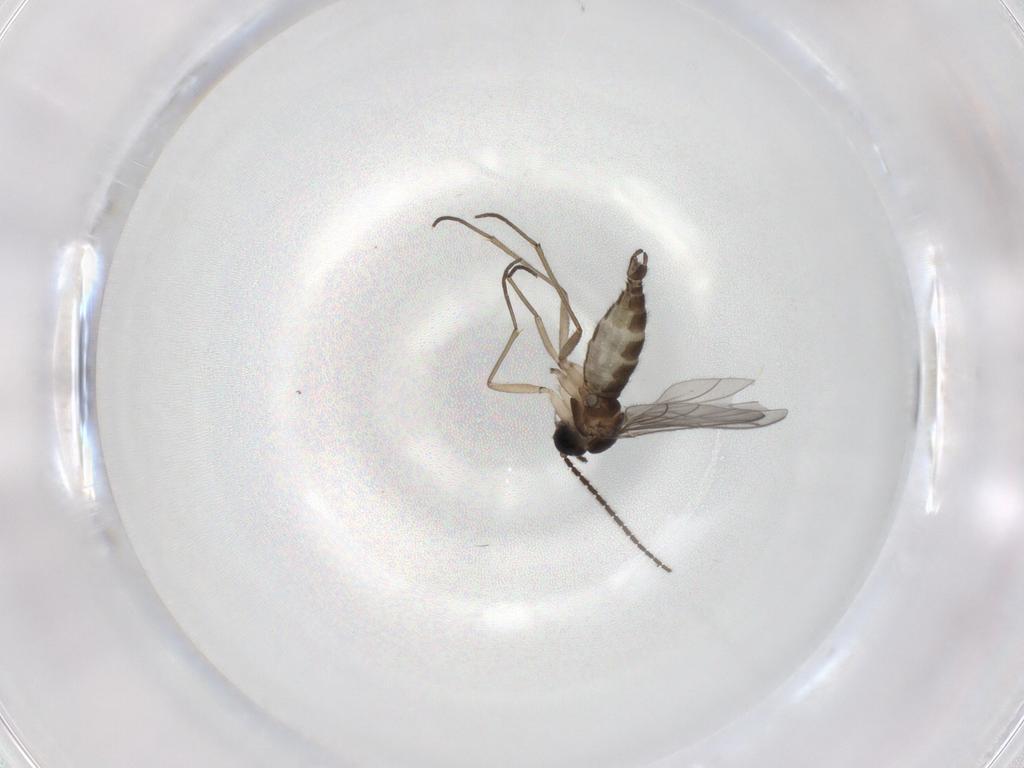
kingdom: Animalia
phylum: Arthropoda
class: Insecta
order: Diptera
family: Sciaridae
